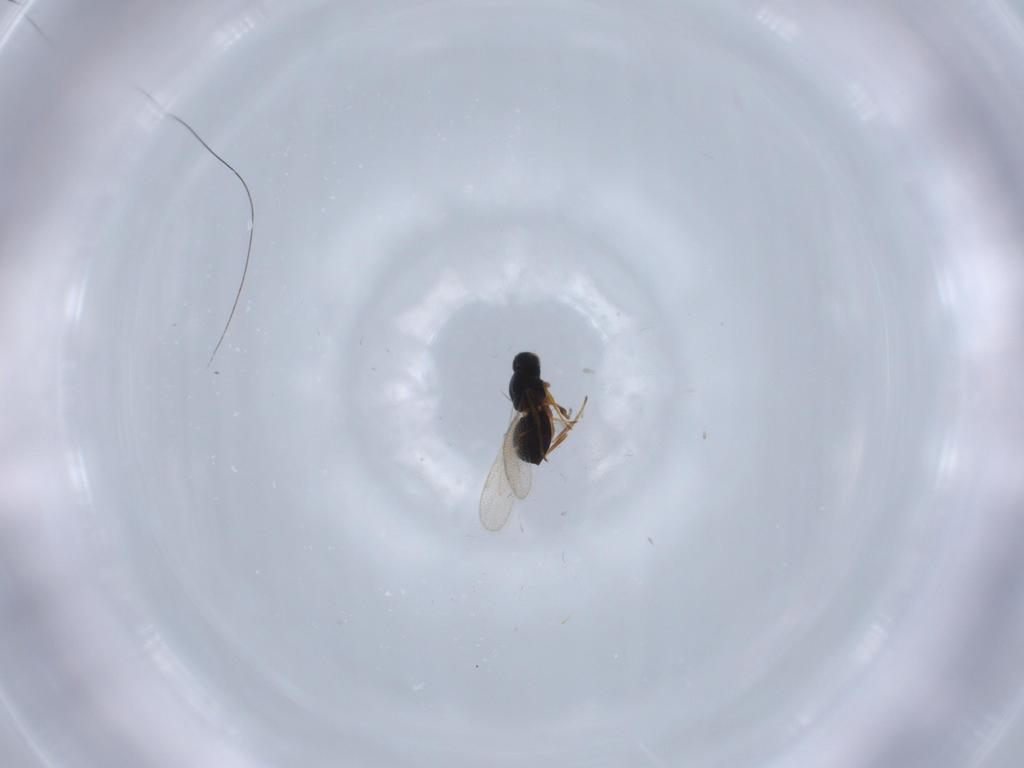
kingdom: Animalia
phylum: Arthropoda
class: Insecta
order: Hymenoptera
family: Platygastridae
